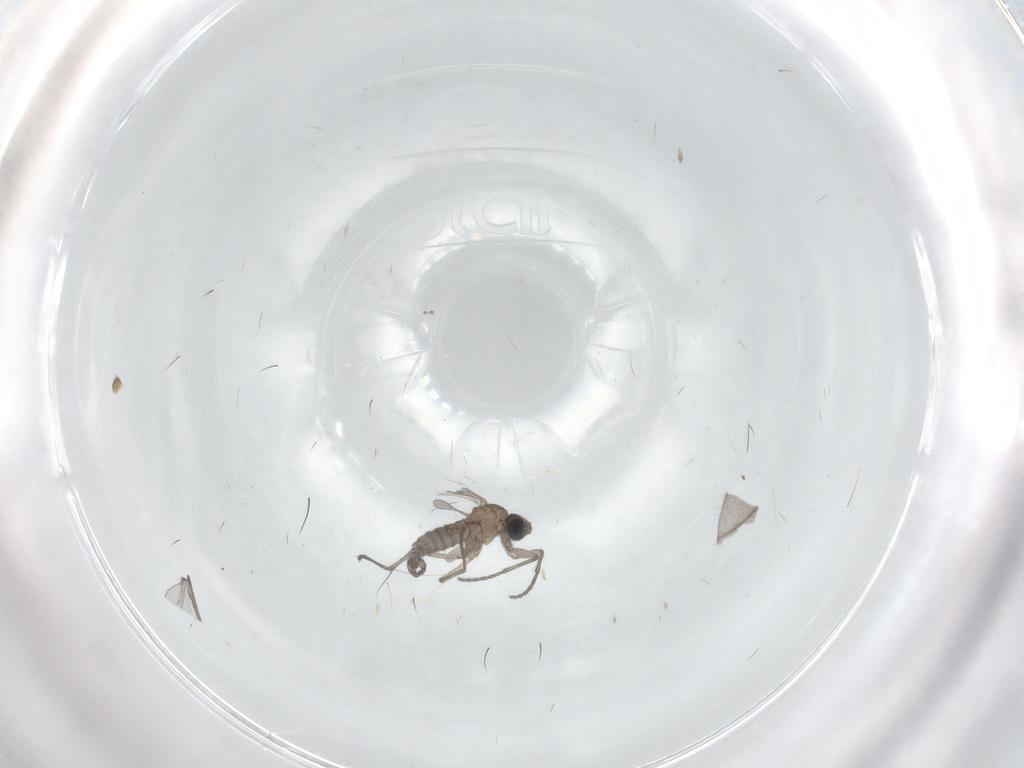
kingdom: Animalia
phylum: Arthropoda
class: Insecta
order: Diptera
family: Sciaridae
